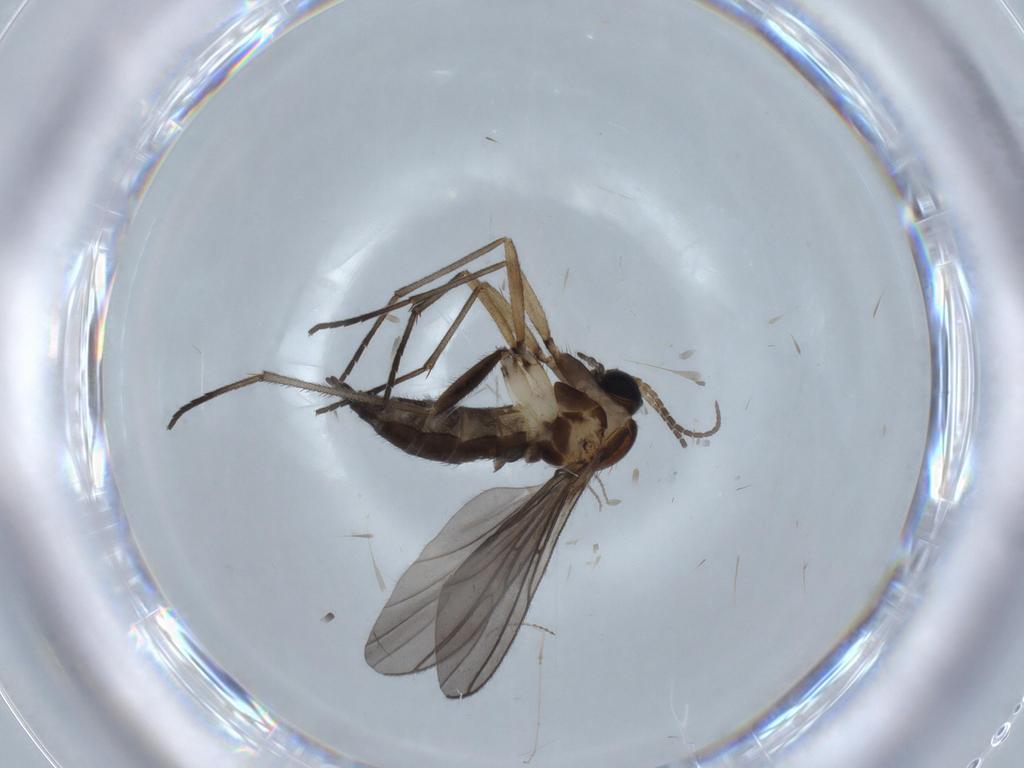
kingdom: Animalia
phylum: Arthropoda
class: Insecta
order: Diptera
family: Sciaridae
